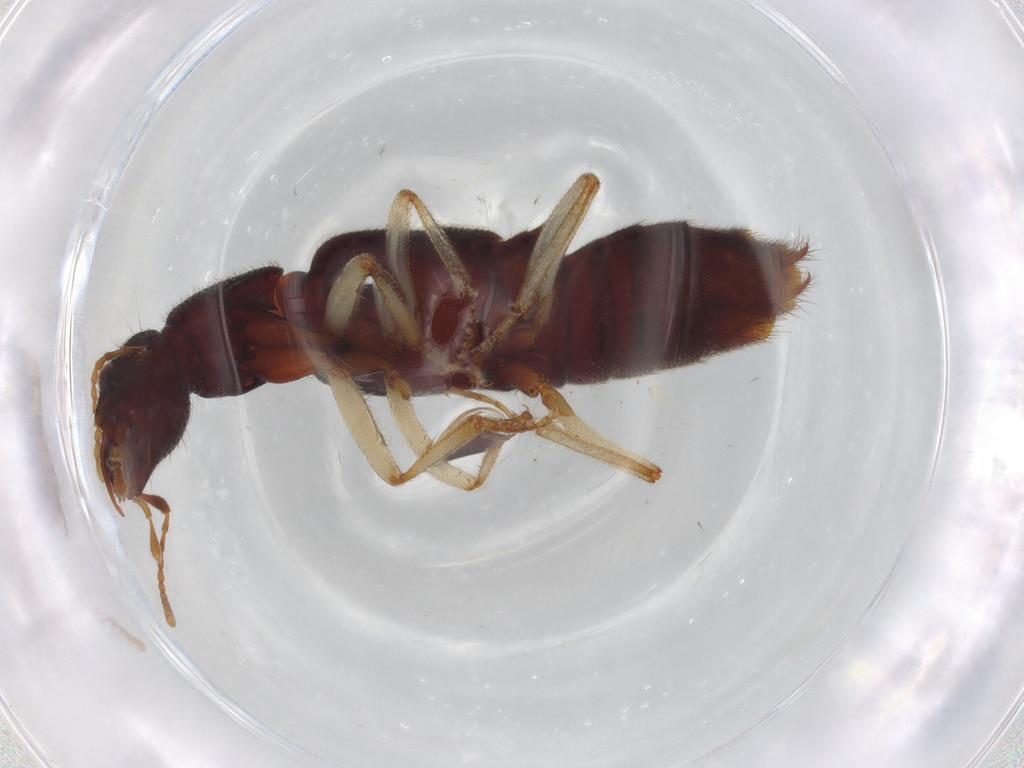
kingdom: Animalia
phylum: Arthropoda
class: Insecta
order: Coleoptera
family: Staphylinidae
